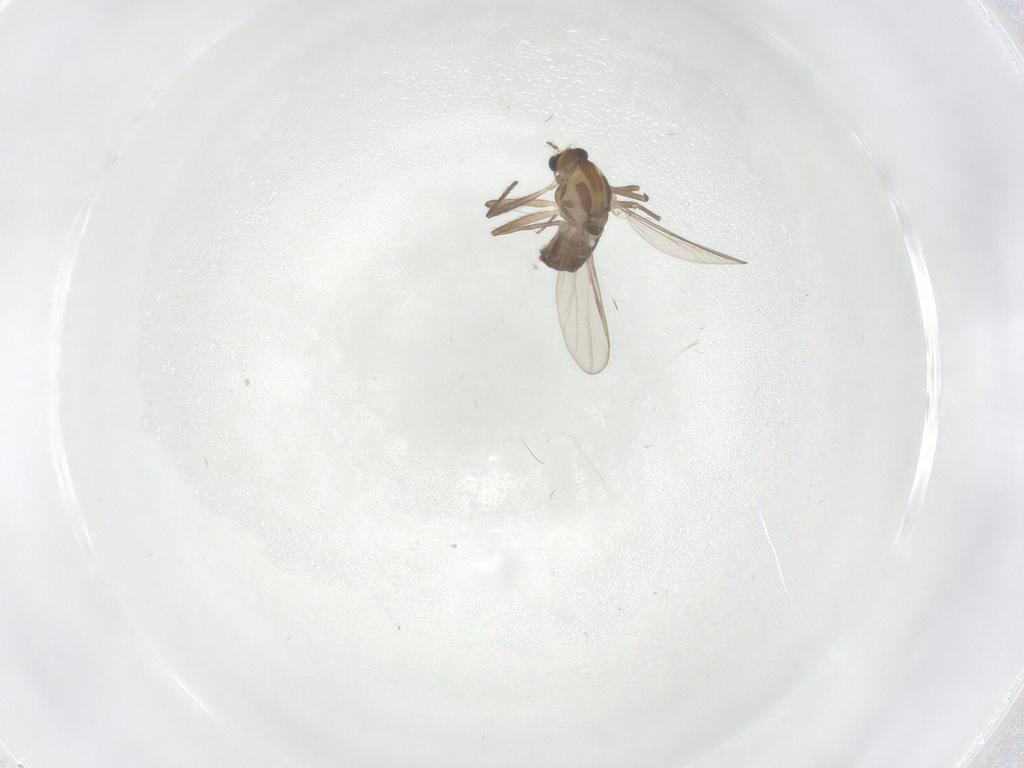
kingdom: Animalia
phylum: Arthropoda
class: Insecta
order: Diptera
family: Chironomidae
